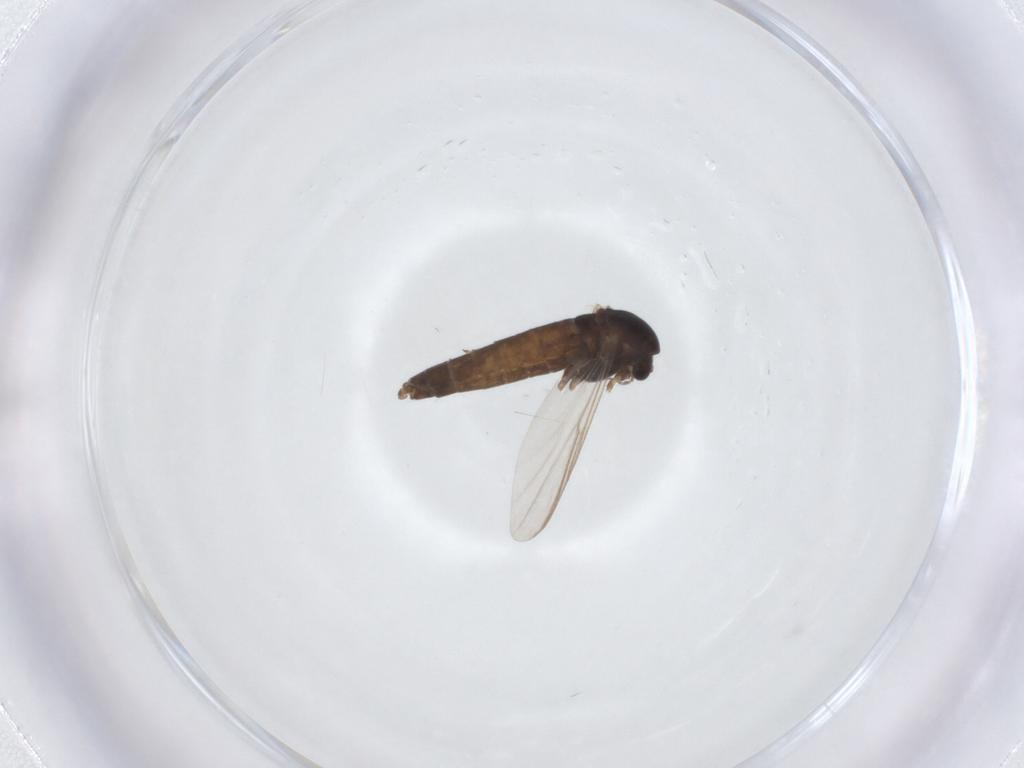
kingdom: Animalia
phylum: Arthropoda
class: Insecta
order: Diptera
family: Chironomidae
